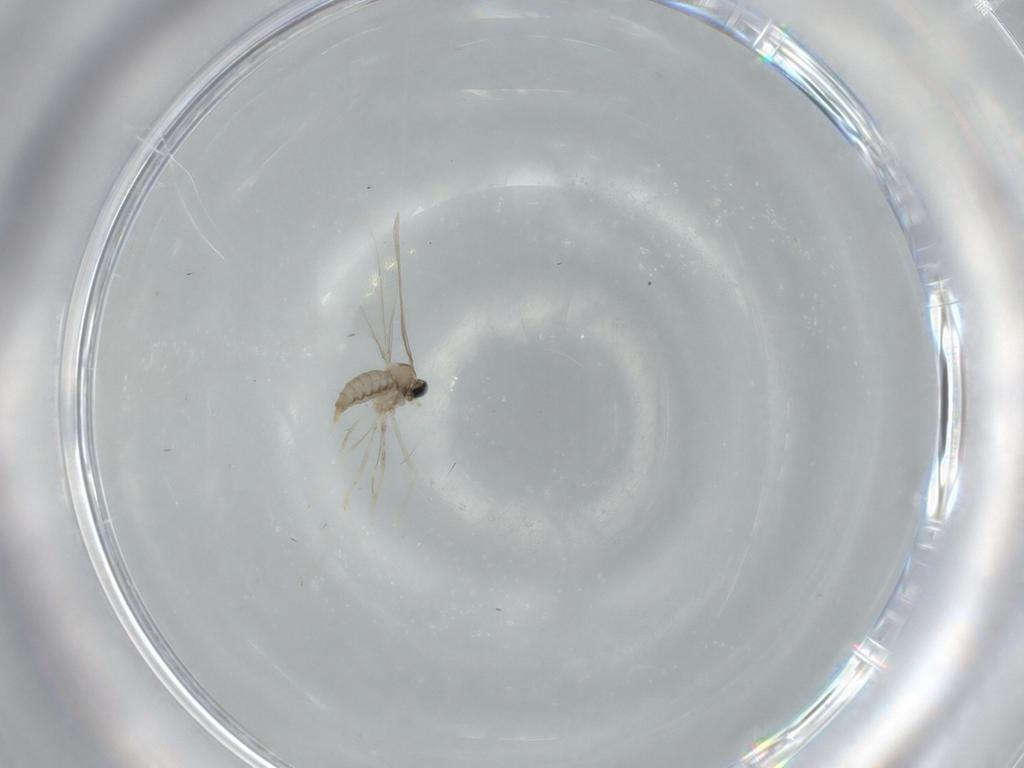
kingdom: Animalia
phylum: Arthropoda
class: Insecta
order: Diptera
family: Cecidomyiidae
